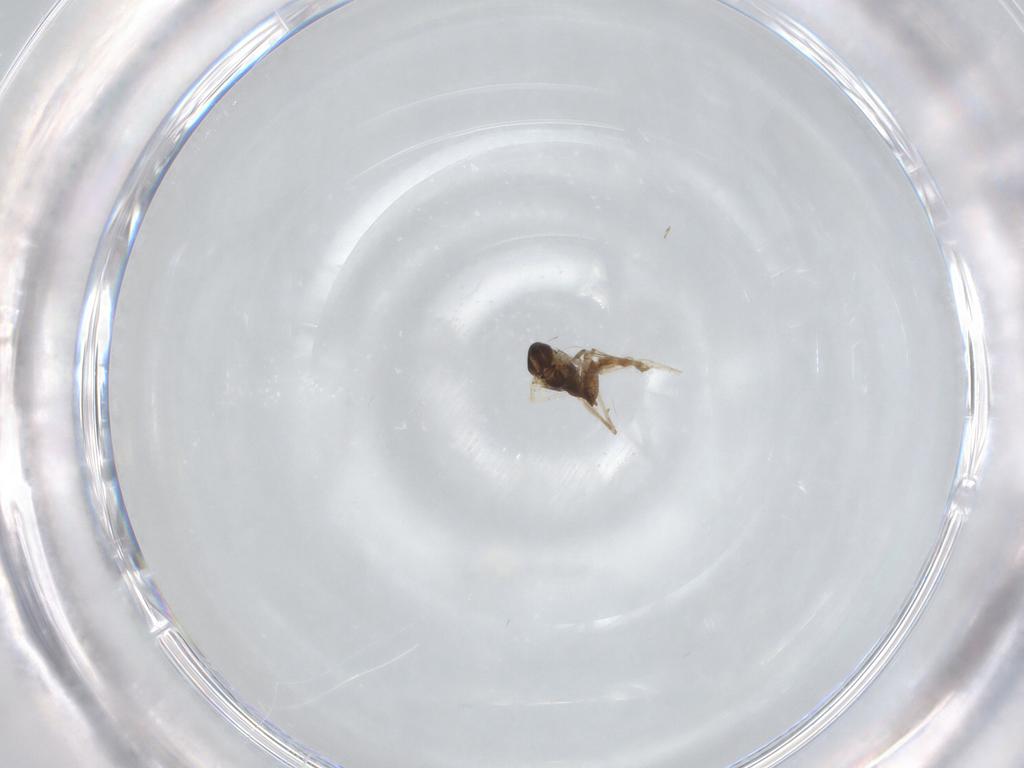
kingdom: Animalia
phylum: Arthropoda
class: Insecta
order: Diptera
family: Chironomidae
